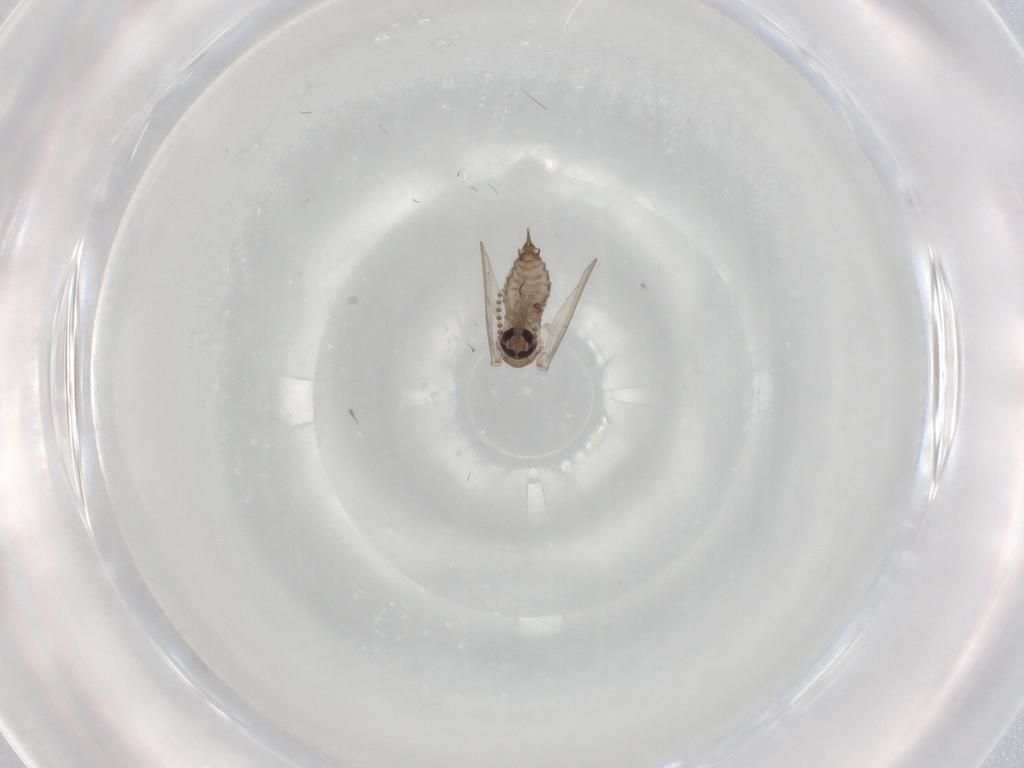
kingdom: Animalia
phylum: Arthropoda
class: Insecta
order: Diptera
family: Psychodidae
